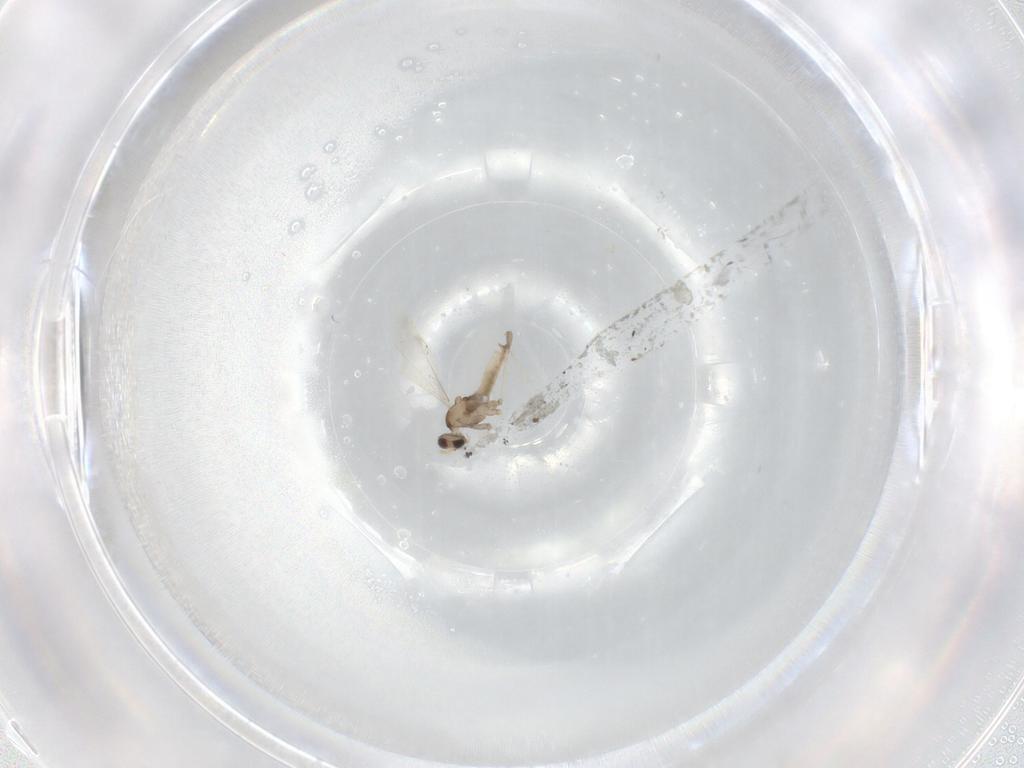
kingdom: Animalia
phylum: Arthropoda
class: Insecta
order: Diptera
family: Cecidomyiidae
